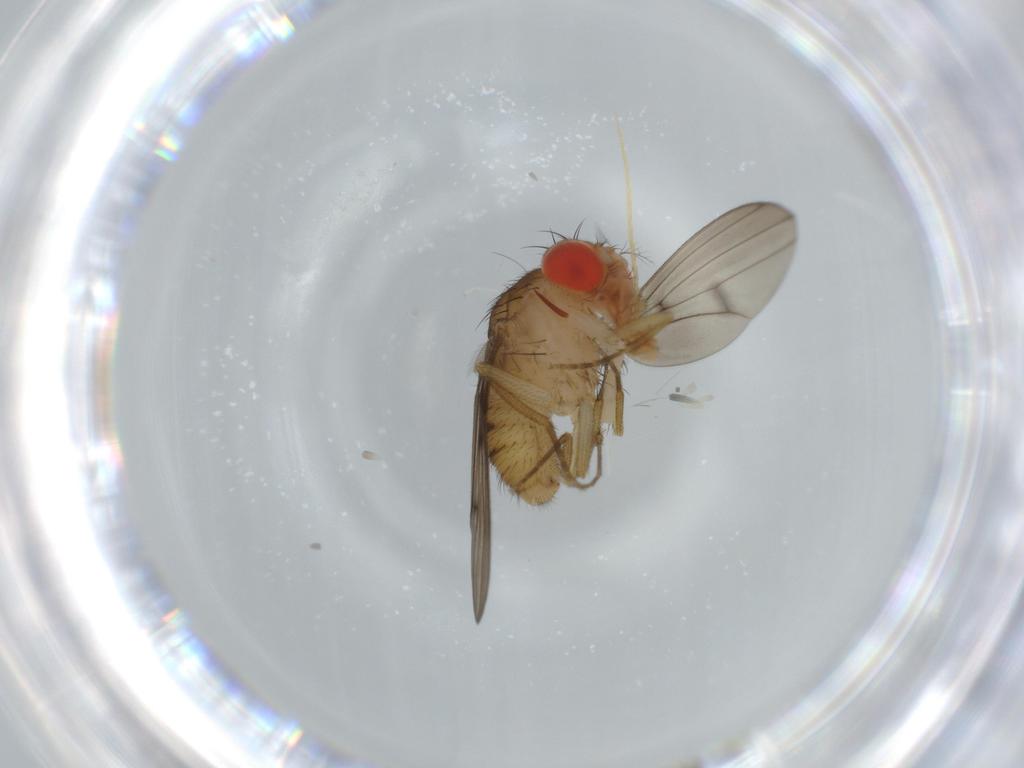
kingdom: Animalia
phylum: Arthropoda
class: Insecta
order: Diptera
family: Drosophilidae
